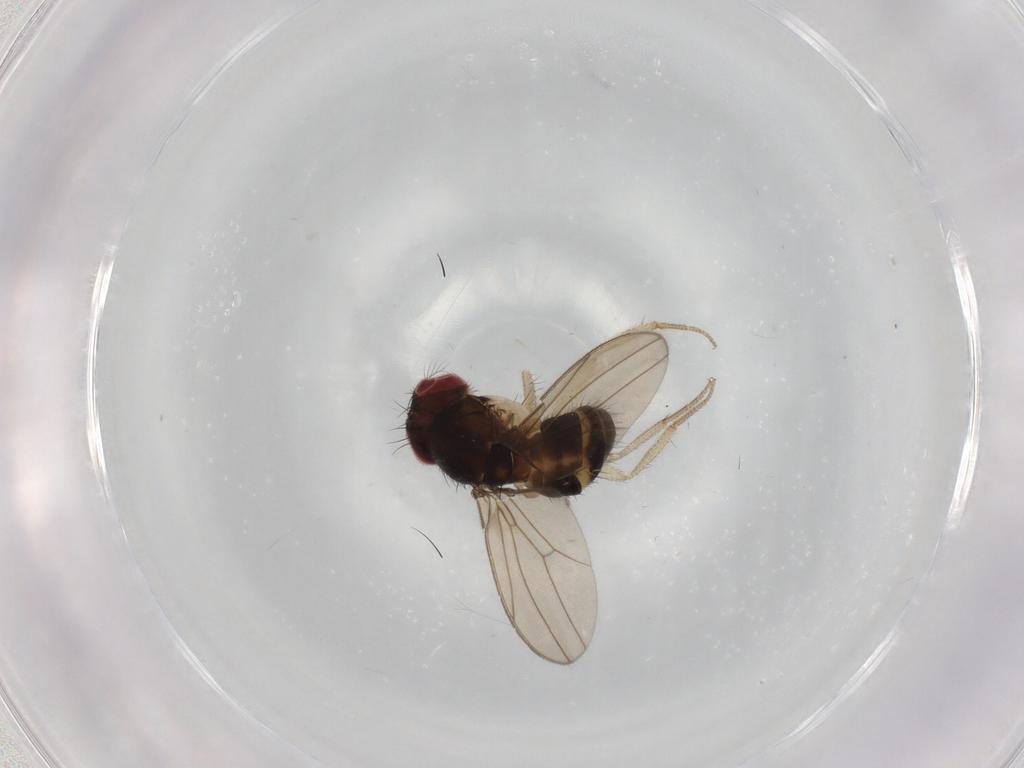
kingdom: Animalia
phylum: Arthropoda
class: Insecta
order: Diptera
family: Drosophilidae
